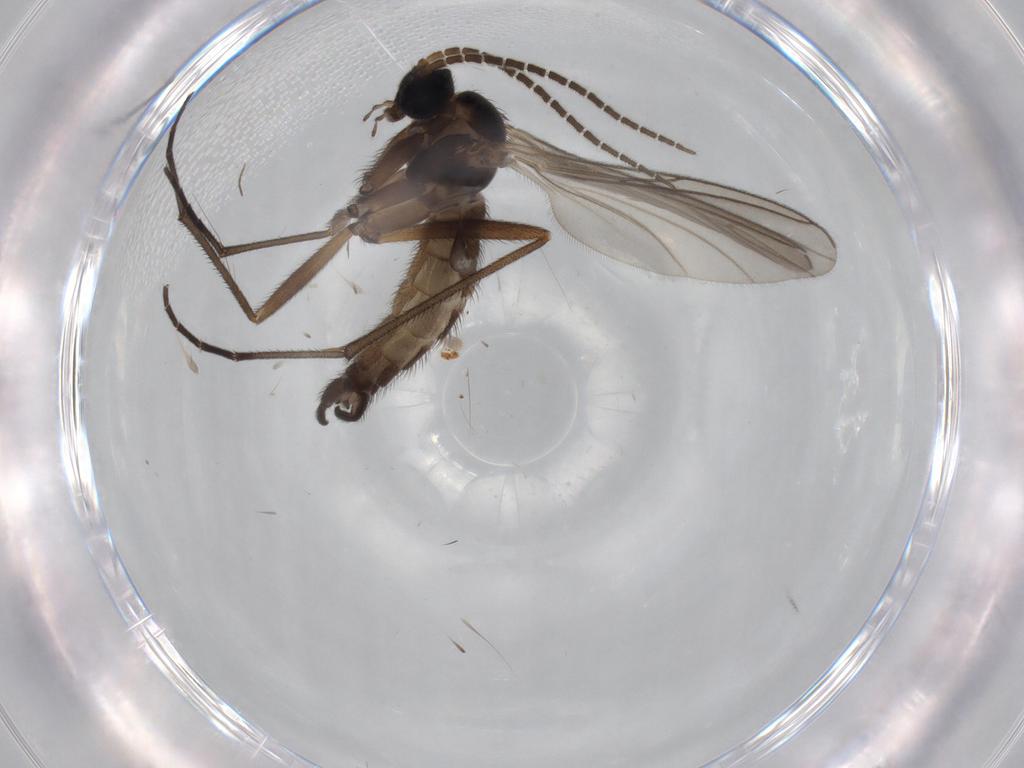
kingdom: Animalia
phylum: Arthropoda
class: Insecta
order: Diptera
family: Sciaridae
